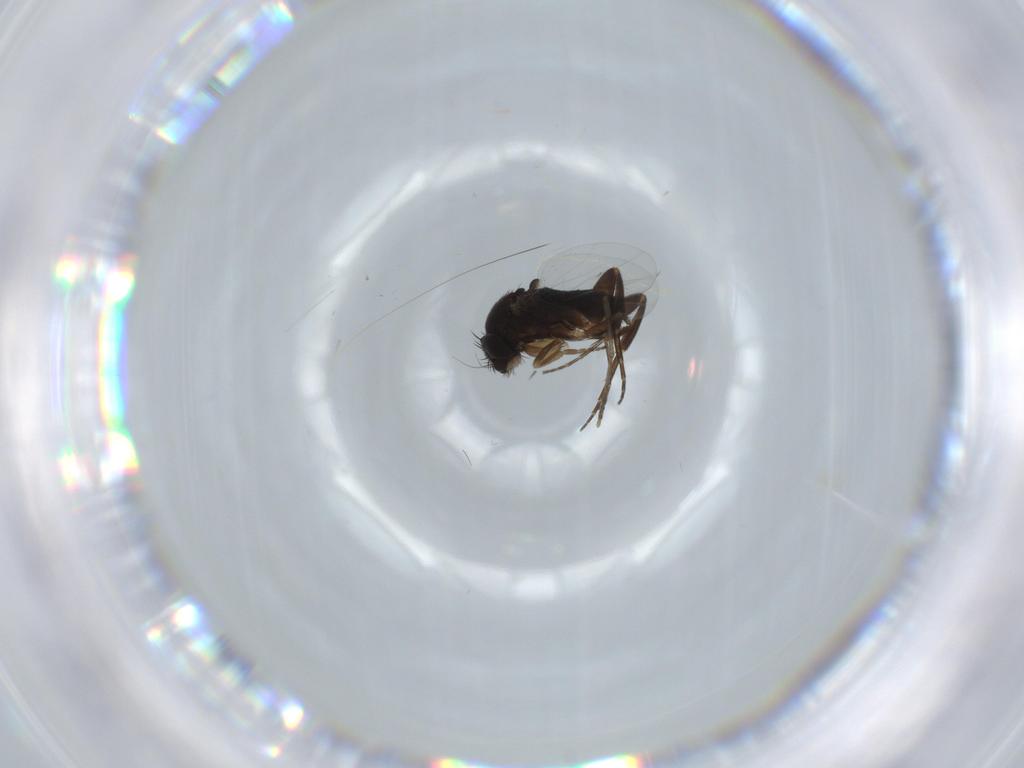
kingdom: Animalia
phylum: Arthropoda
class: Insecta
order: Diptera
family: Phoridae
